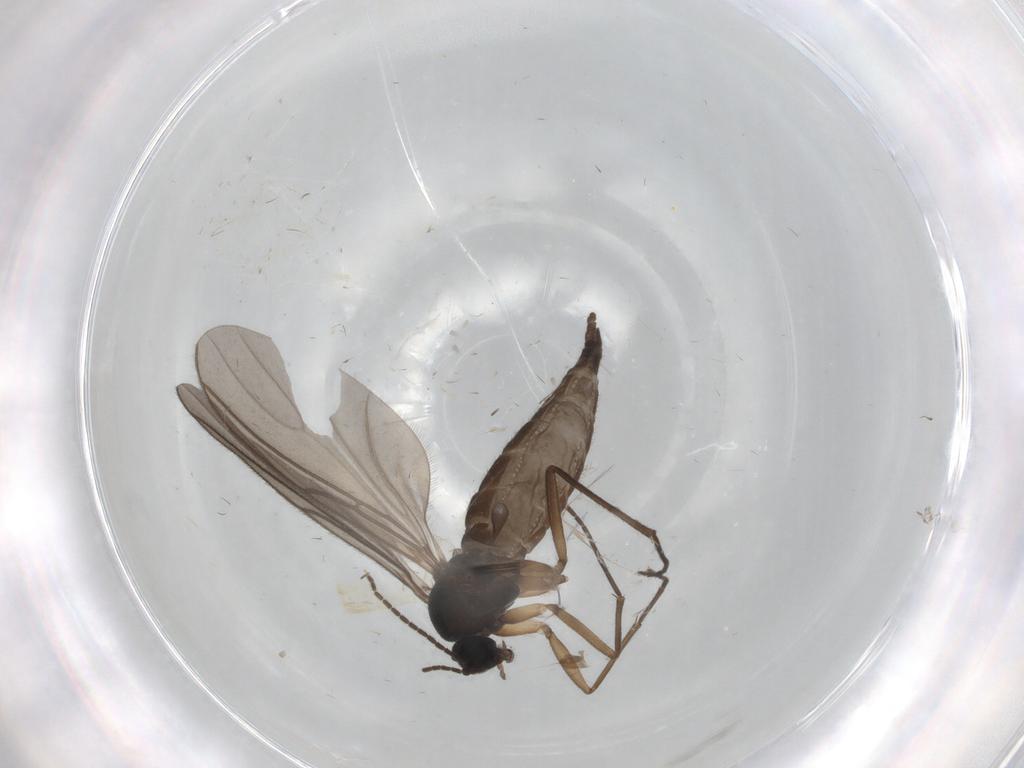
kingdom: Animalia
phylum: Arthropoda
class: Insecta
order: Diptera
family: Sciaridae
